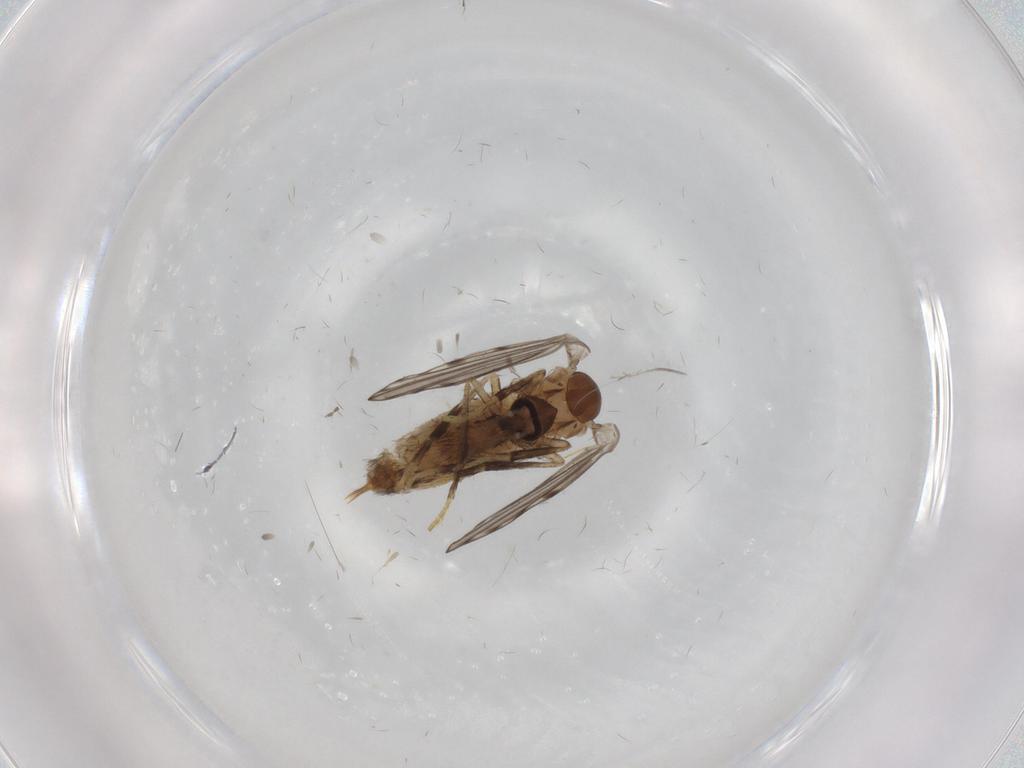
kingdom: Animalia
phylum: Arthropoda
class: Insecta
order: Diptera
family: Psychodidae
